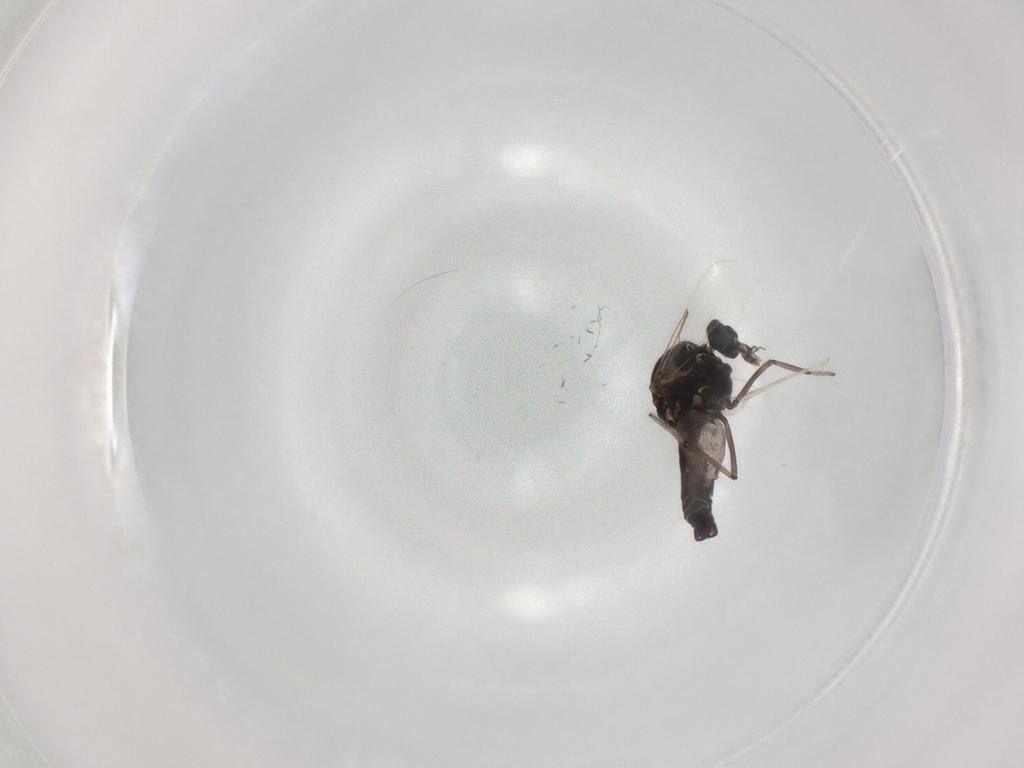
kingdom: Animalia
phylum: Arthropoda
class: Insecta
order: Diptera
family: Ceratopogonidae
